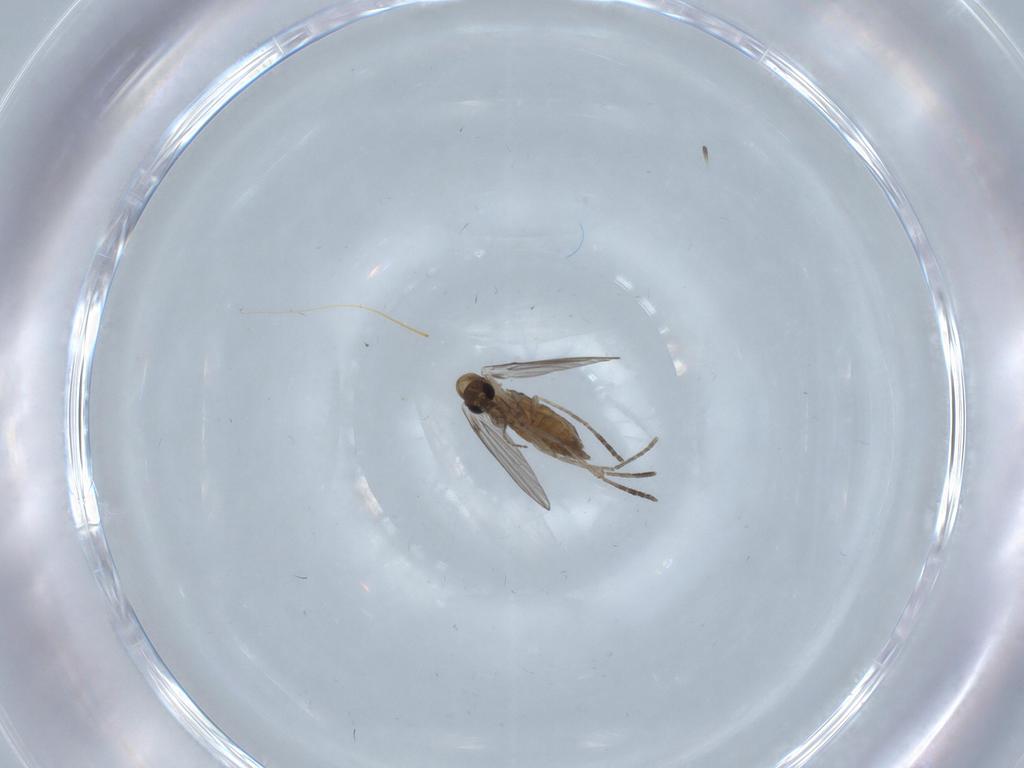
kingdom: Animalia
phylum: Arthropoda
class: Insecta
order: Diptera
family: Psychodidae
